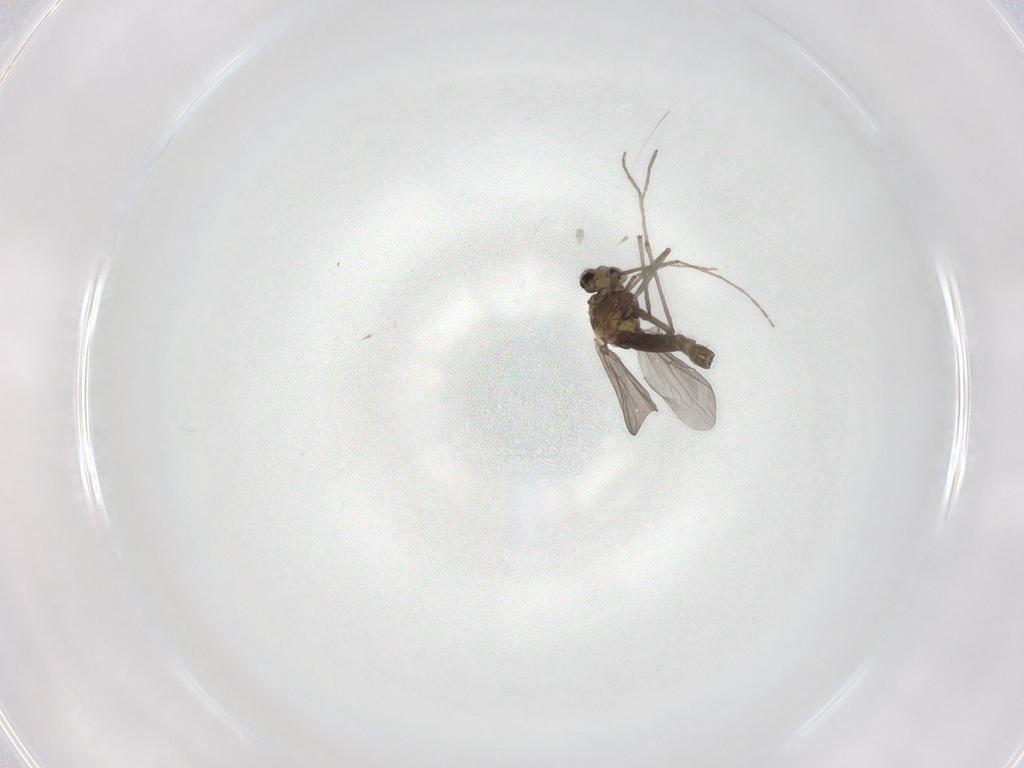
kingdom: Animalia
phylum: Arthropoda
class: Insecta
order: Diptera
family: Chironomidae
